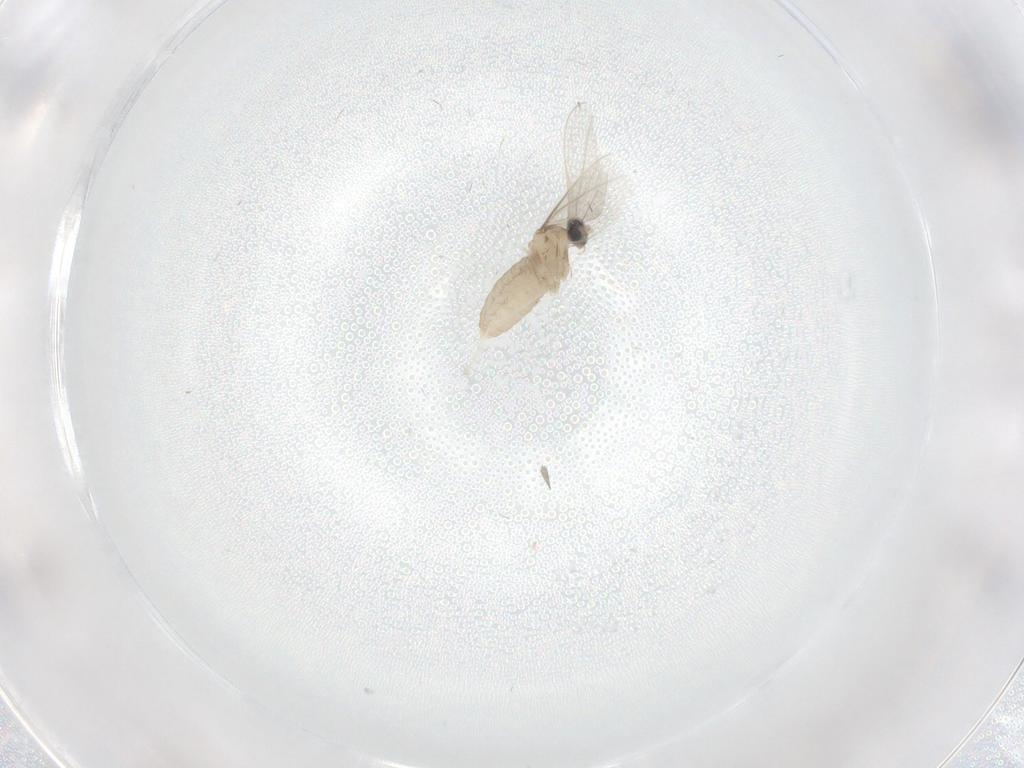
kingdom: Animalia
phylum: Arthropoda
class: Insecta
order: Diptera
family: Cecidomyiidae
